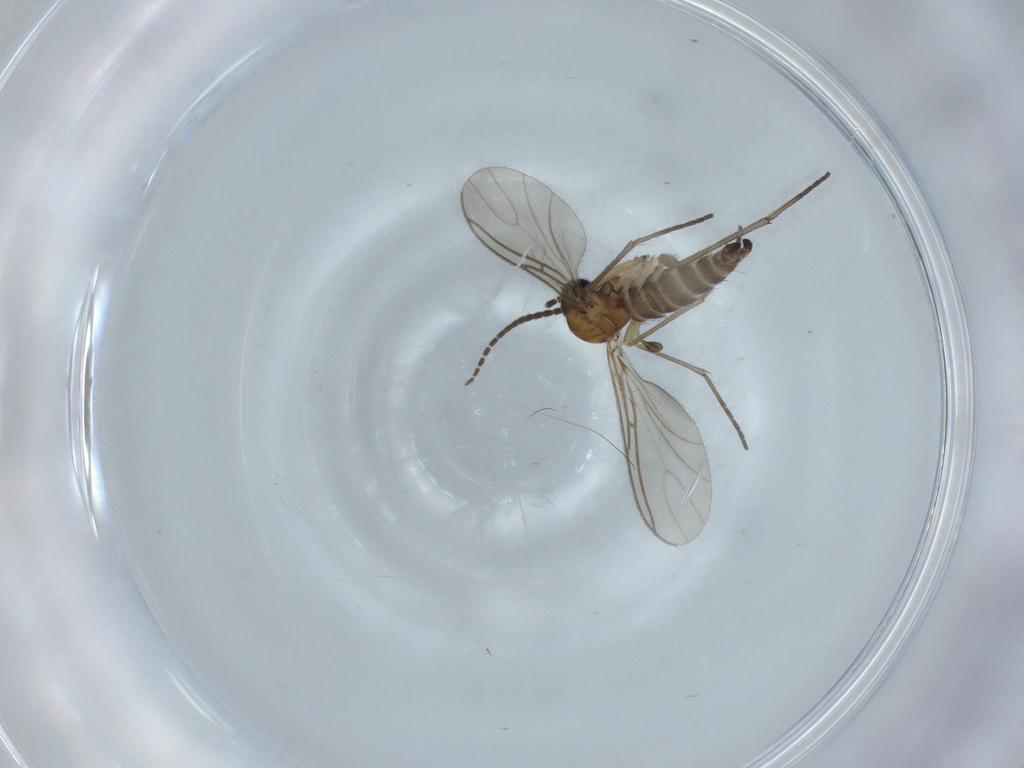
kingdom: Animalia
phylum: Arthropoda
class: Insecta
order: Diptera
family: Sciaridae
